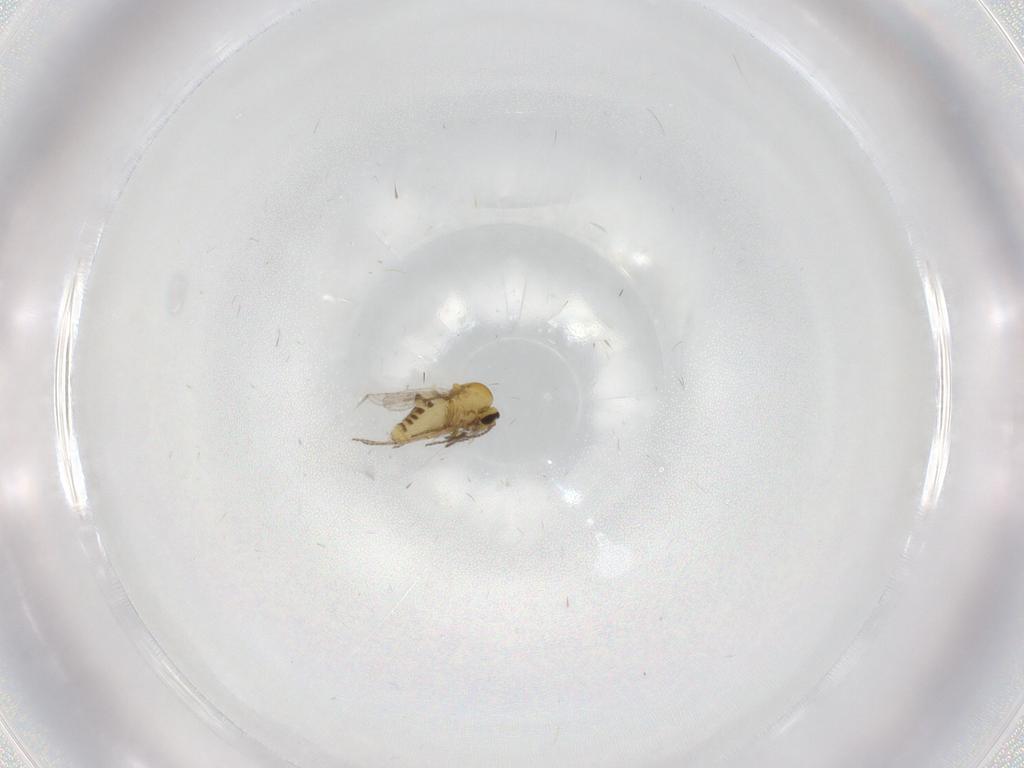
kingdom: Animalia
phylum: Arthropoda
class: Insecta
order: Diptera
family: Ceratopogonidae
